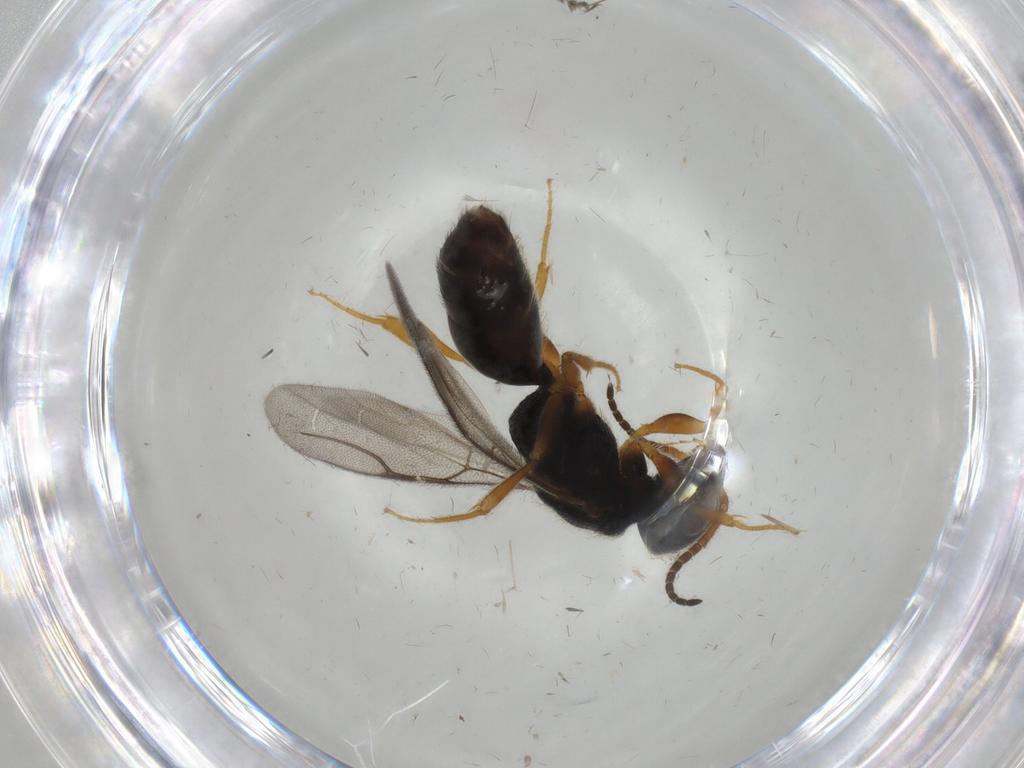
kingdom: Animalia
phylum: Arthropoda
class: Insecta
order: Hymenoptera
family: Bethylidae
